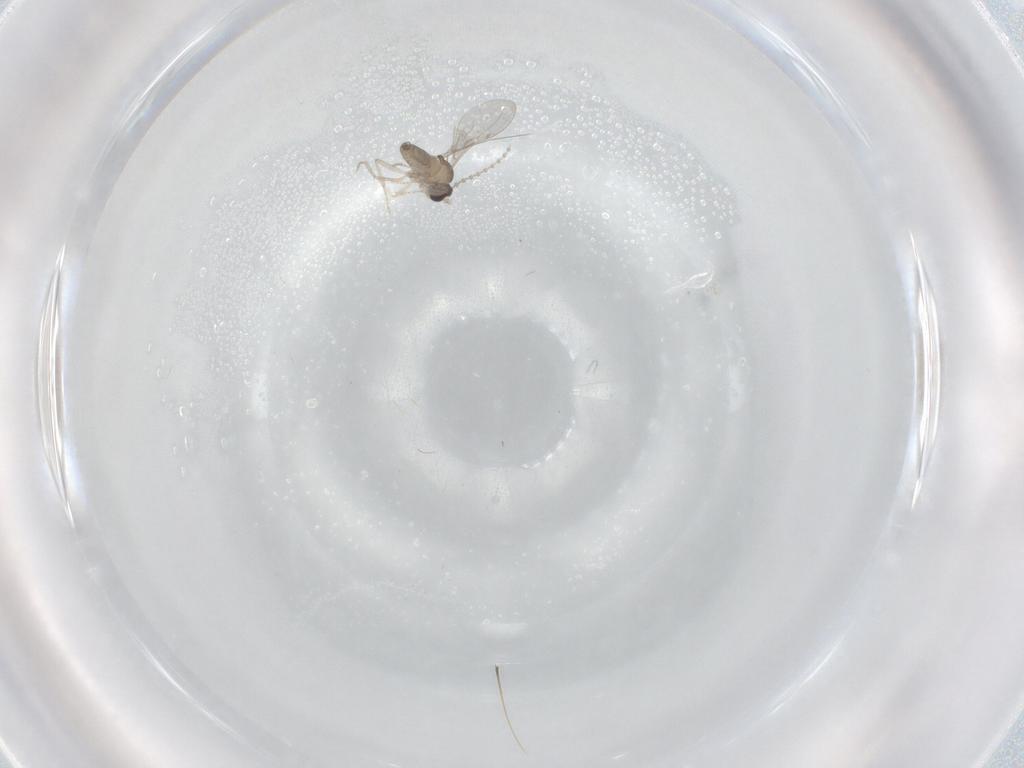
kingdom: Animalia
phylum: Arthropoda
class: Insecta
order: Diptera
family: Cecidomyiidae
